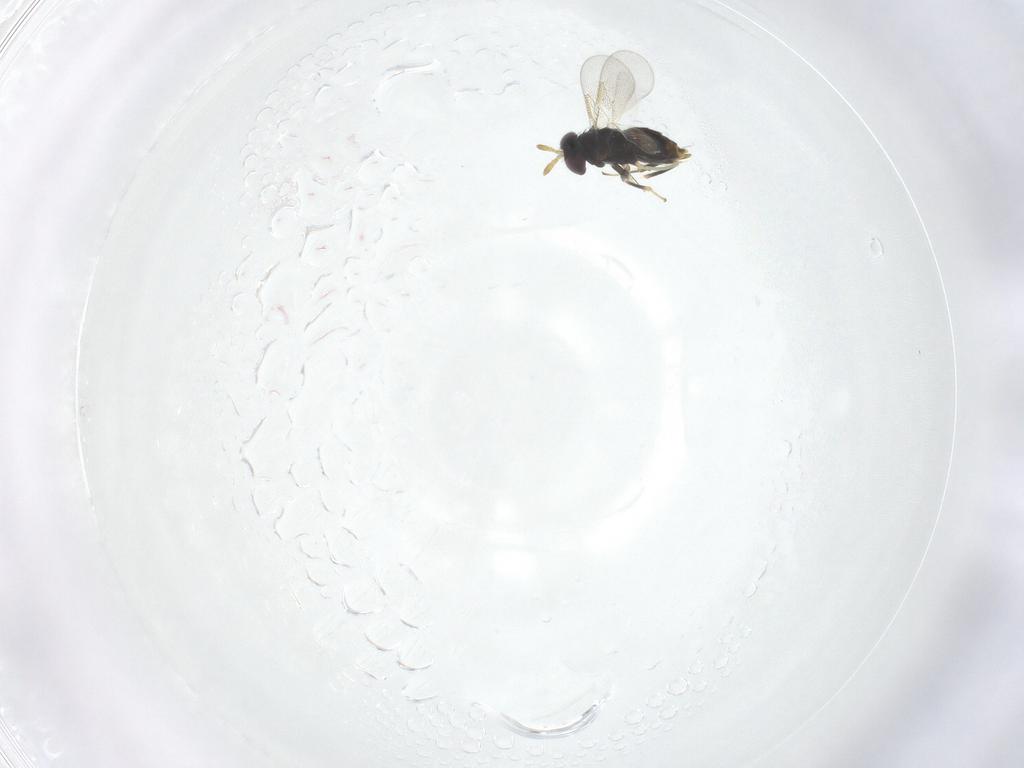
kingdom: Animalia
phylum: Arthropoda
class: Insecta
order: Hymenoptera
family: Aphelinidae
